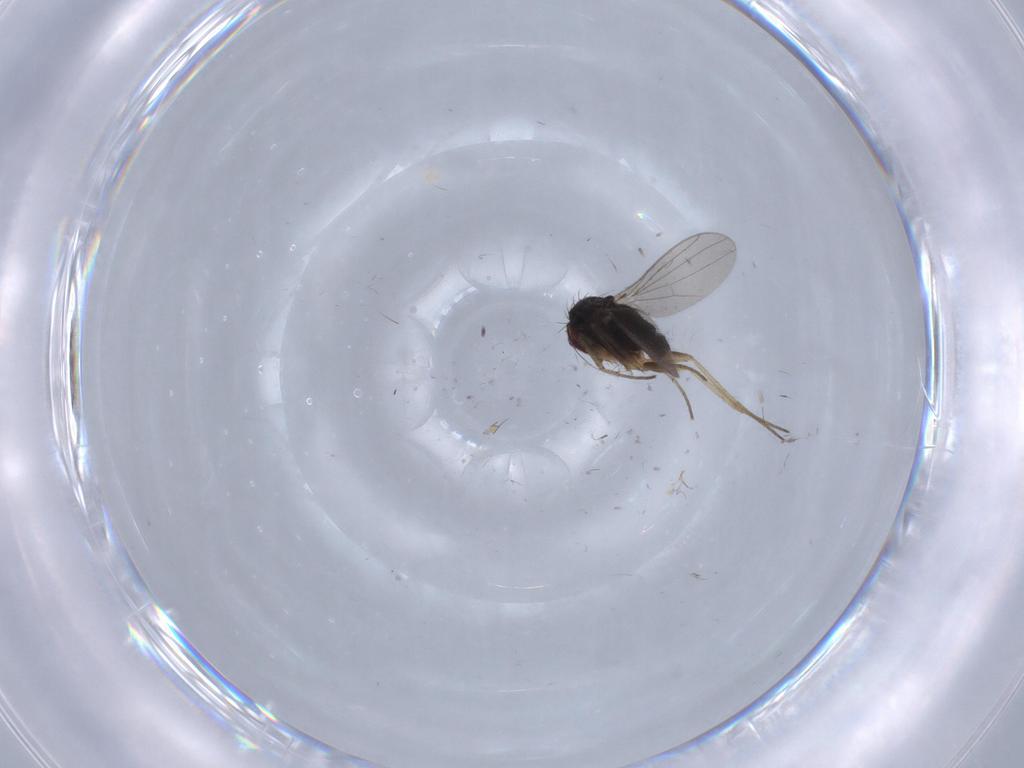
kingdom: Animalia
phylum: Arthropoda
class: Insecta
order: Diptera
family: Dolichopodidae
